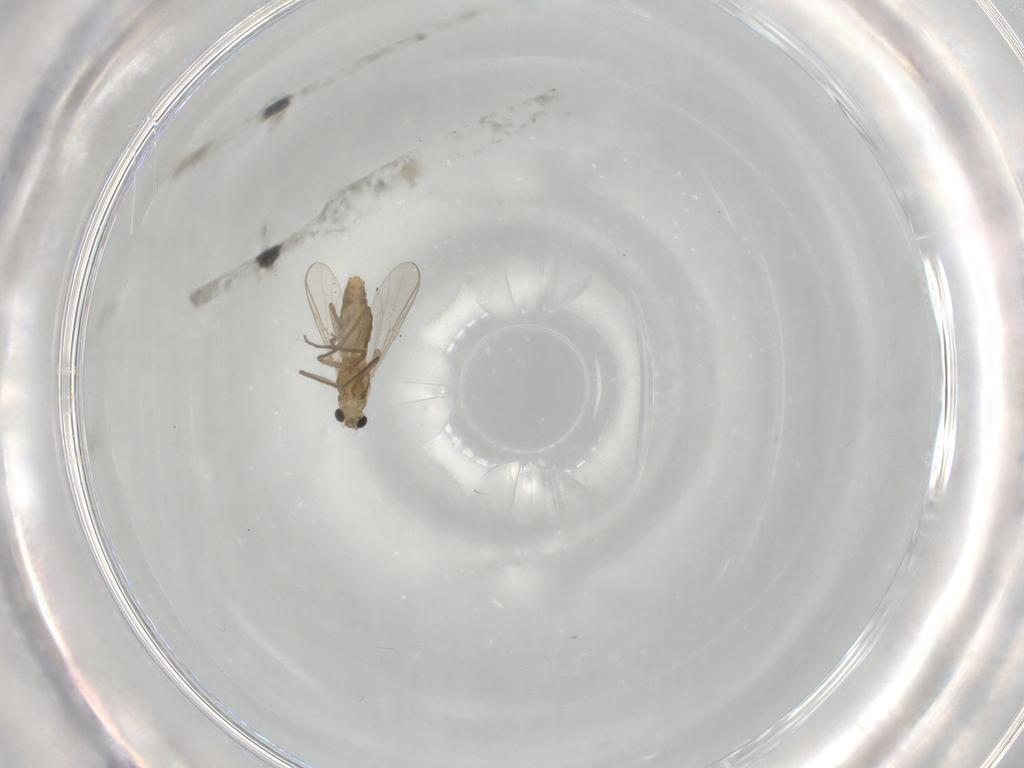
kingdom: Animalia
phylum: Arthropoda
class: Insecta
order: Diptera
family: Chironomidae
